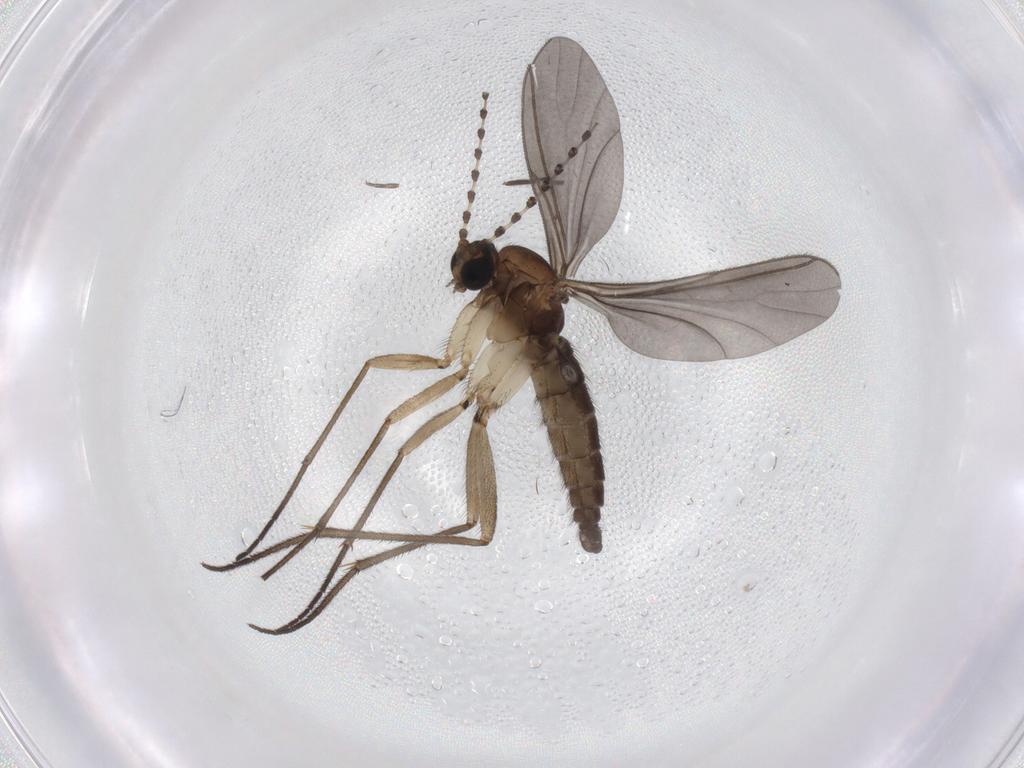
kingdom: Animalia
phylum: Arthropoda
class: Insecta
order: Diptera
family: Sciaridae
